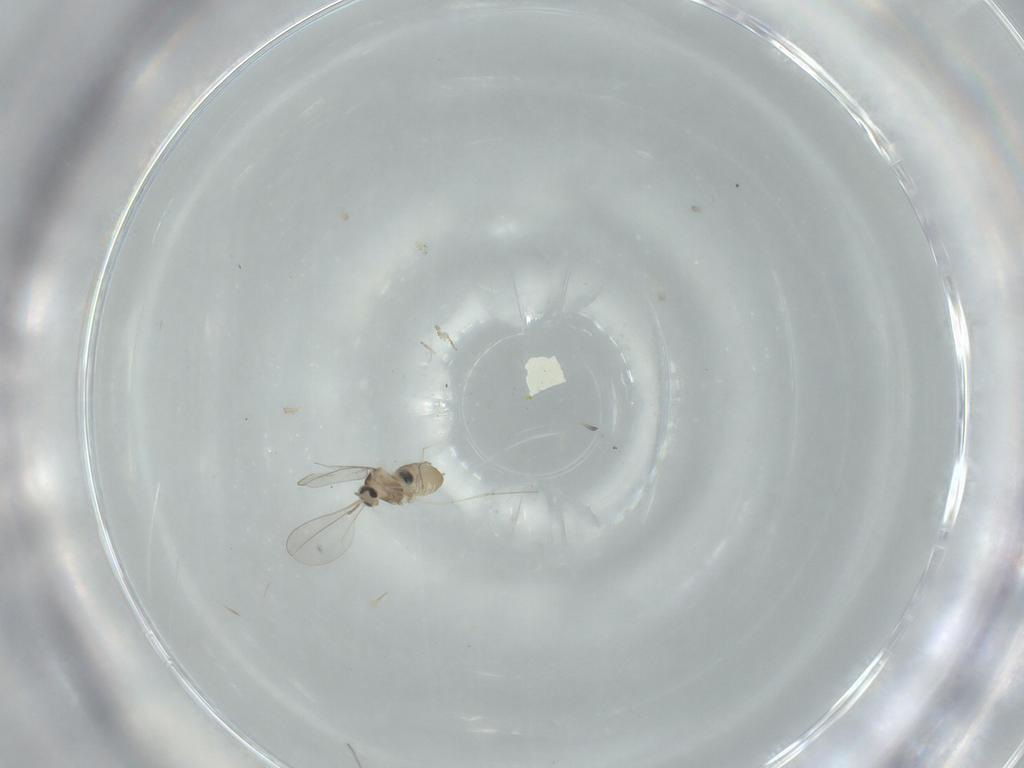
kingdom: Animalia
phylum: Arthropoda
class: Insecta
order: Diptera
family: Cecidomyiidae
